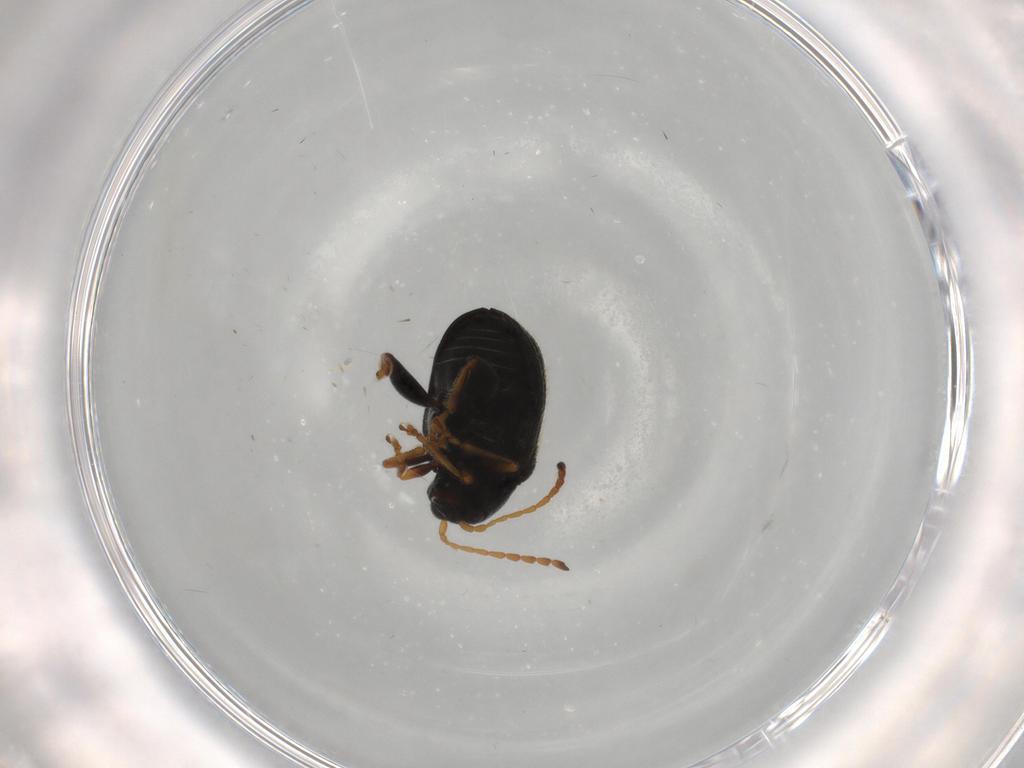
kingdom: Animalia
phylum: Arthropoda
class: Insecta
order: Coleoptera
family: Chrysomelidae
